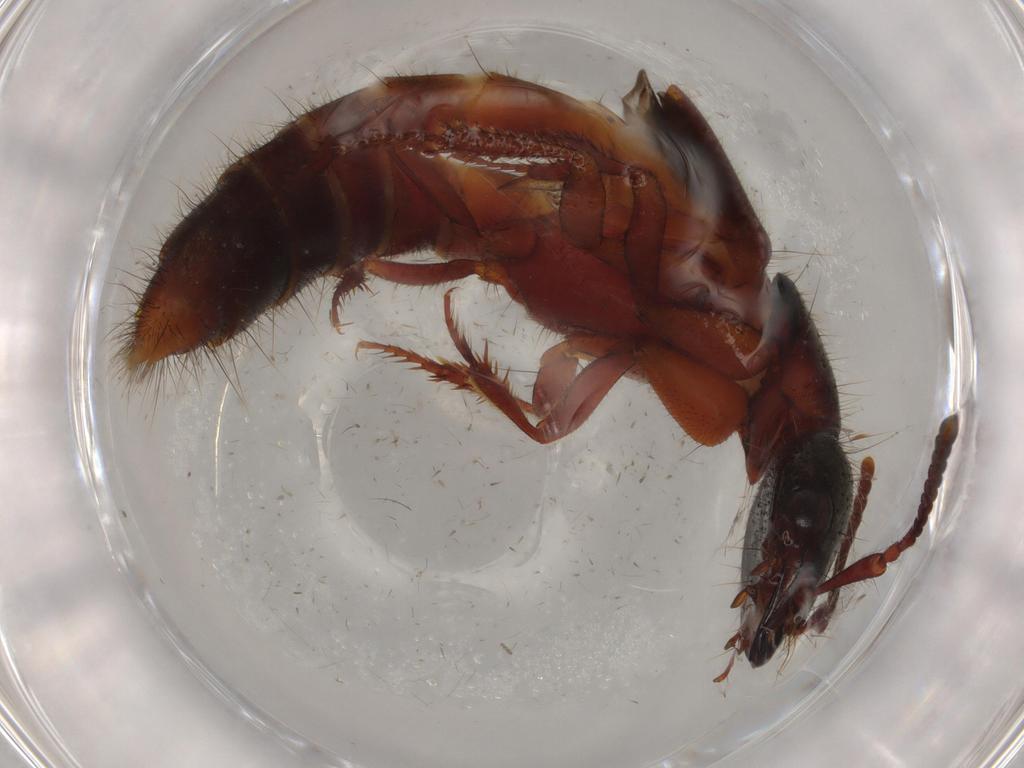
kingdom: Animalia
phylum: Arthropoda
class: Insecta
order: Coleoptera
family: Staphylinidae
